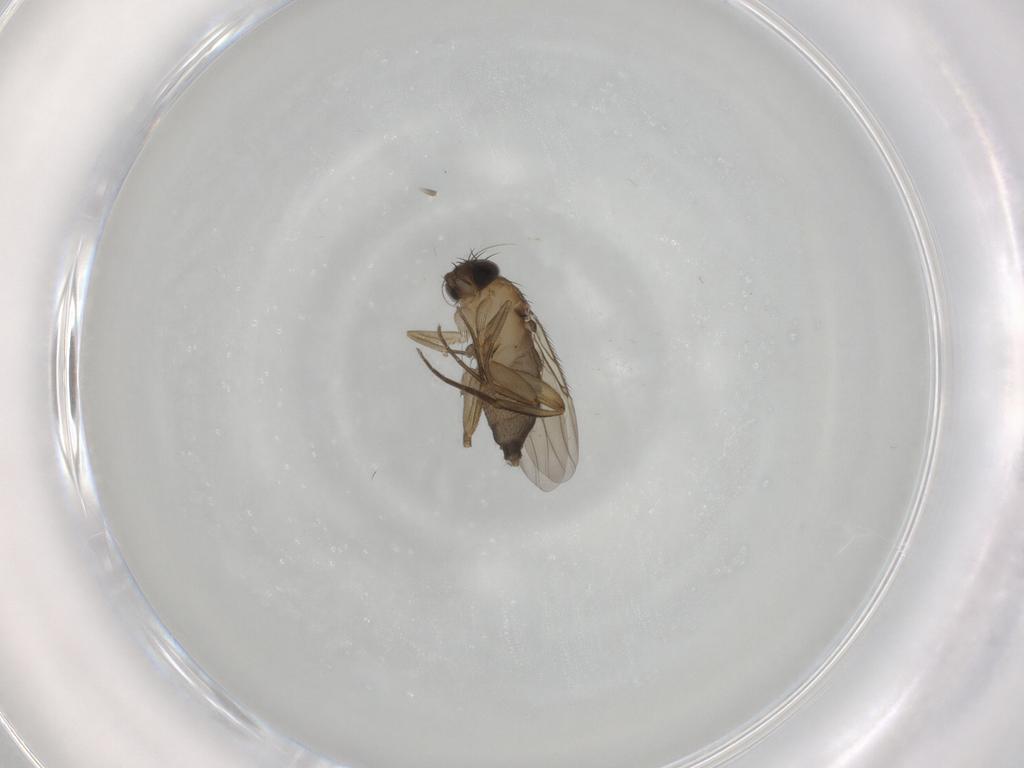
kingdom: Animalia
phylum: Arthropoda
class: Insecta
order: Diptera
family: Phoridae
